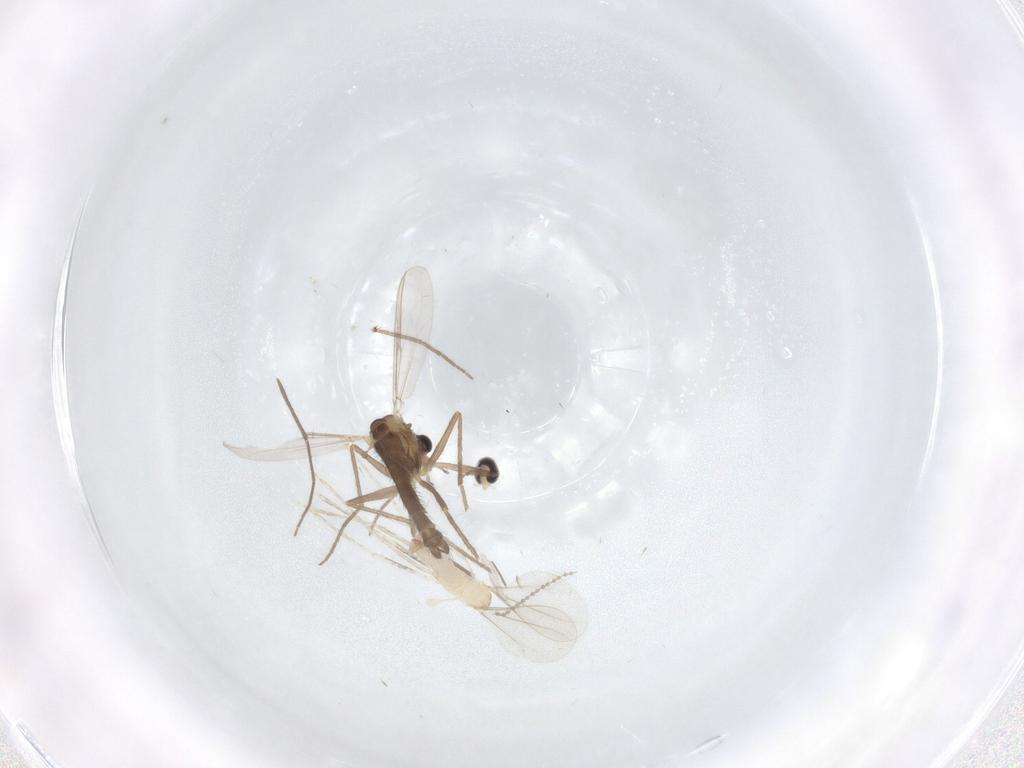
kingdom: Animalia
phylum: Arthropoda
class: Insecta
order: Diptera
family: Chironomidae
